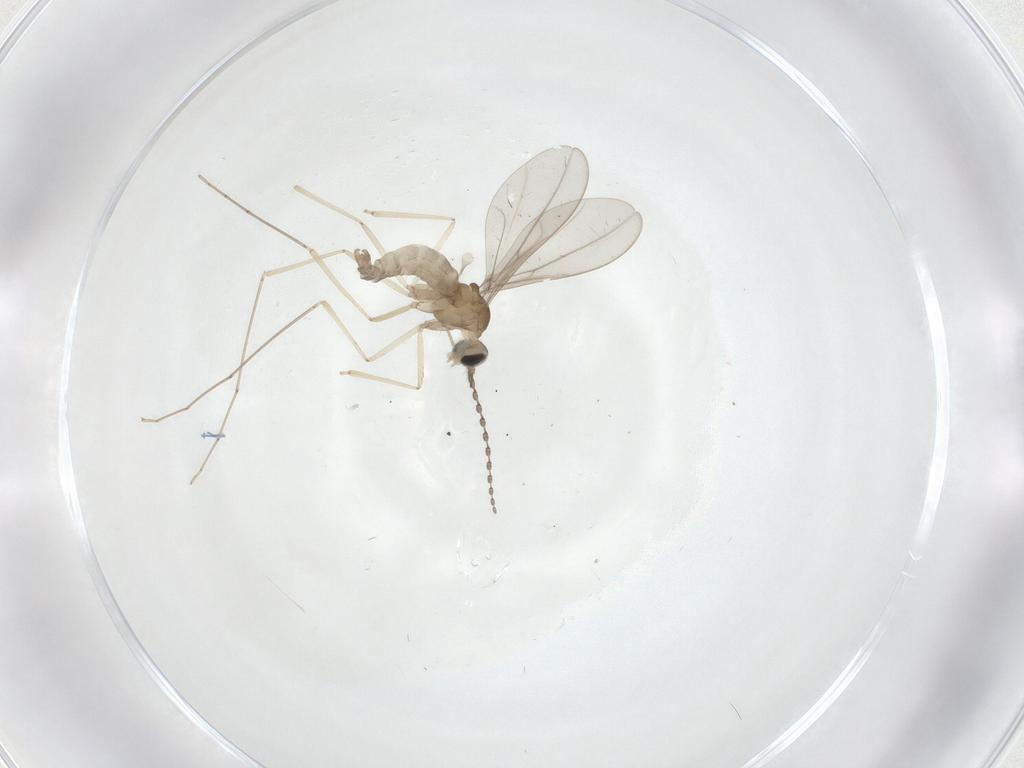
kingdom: Animalia
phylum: Arthropoda
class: Insecta
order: Diptera
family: Cecidomyiidae
